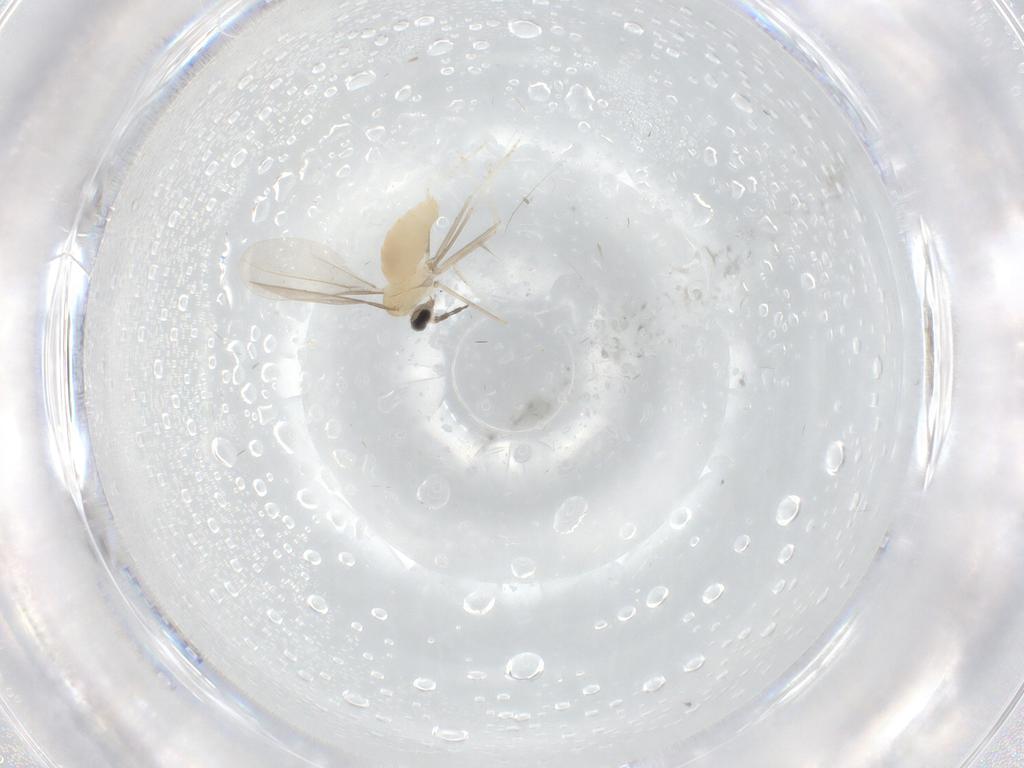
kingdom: Animalia
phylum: Arthropoda
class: Insecta
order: Diptera
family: Cecidomyiidae
